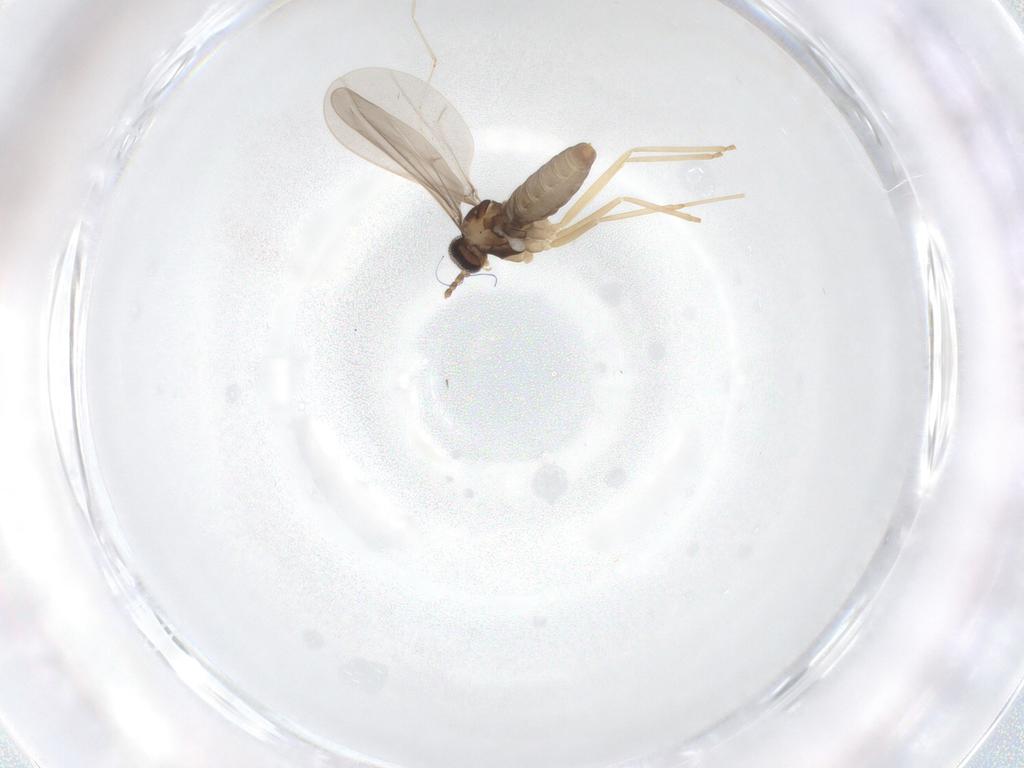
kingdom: Animalia
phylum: Arthropoda
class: Insecta
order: Diptera
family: Cecidomyiidae
